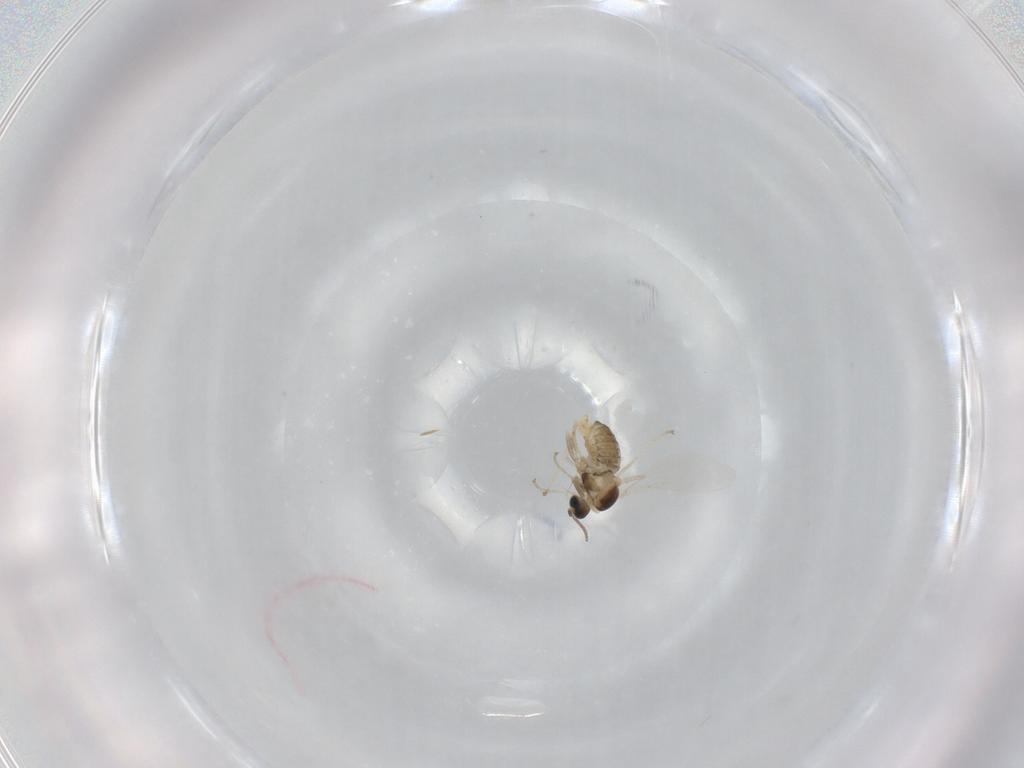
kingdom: Animalia
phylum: Arthropoda
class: Insecta
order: Diptera
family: Cecidomyiidae
